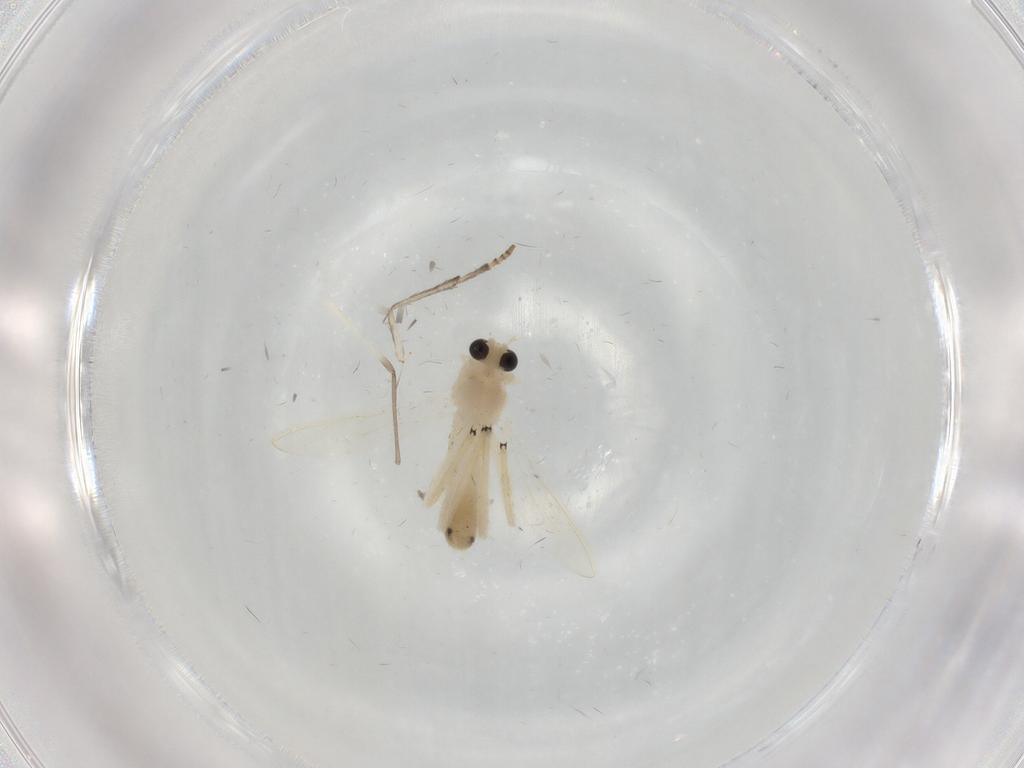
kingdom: Animalia
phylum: Arthropoda
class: Insecta
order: Diptera
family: Chironomidae
